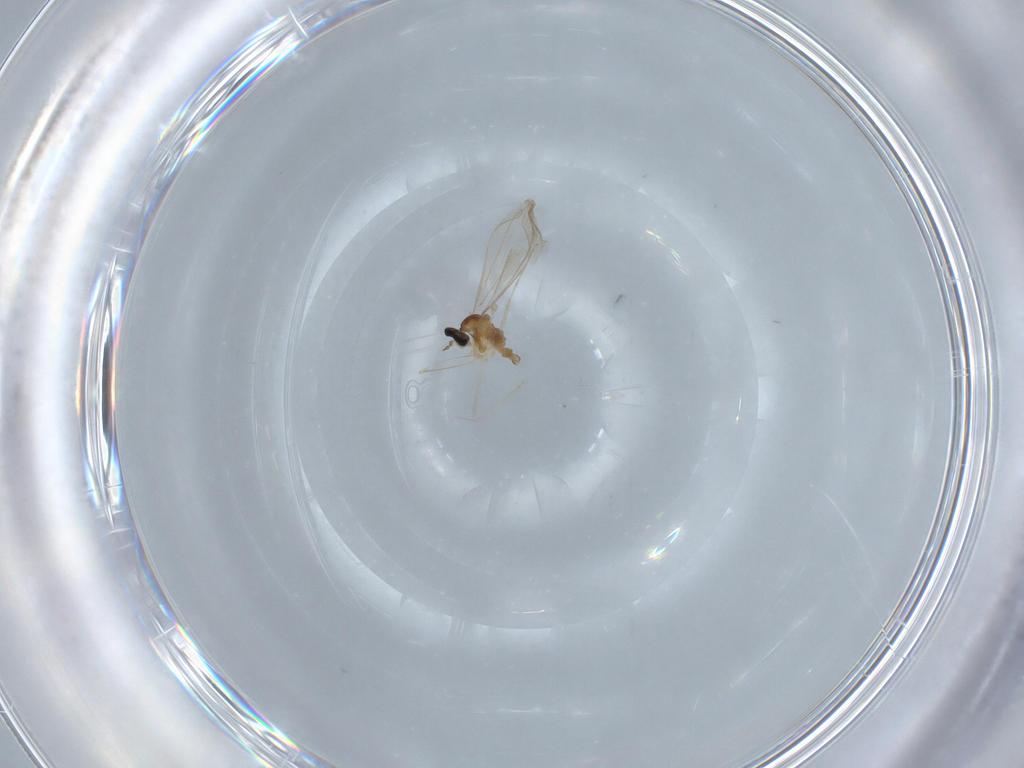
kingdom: Animalia
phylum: Arthropoda
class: Insecta
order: Diptera
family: Cecidomyiidae
